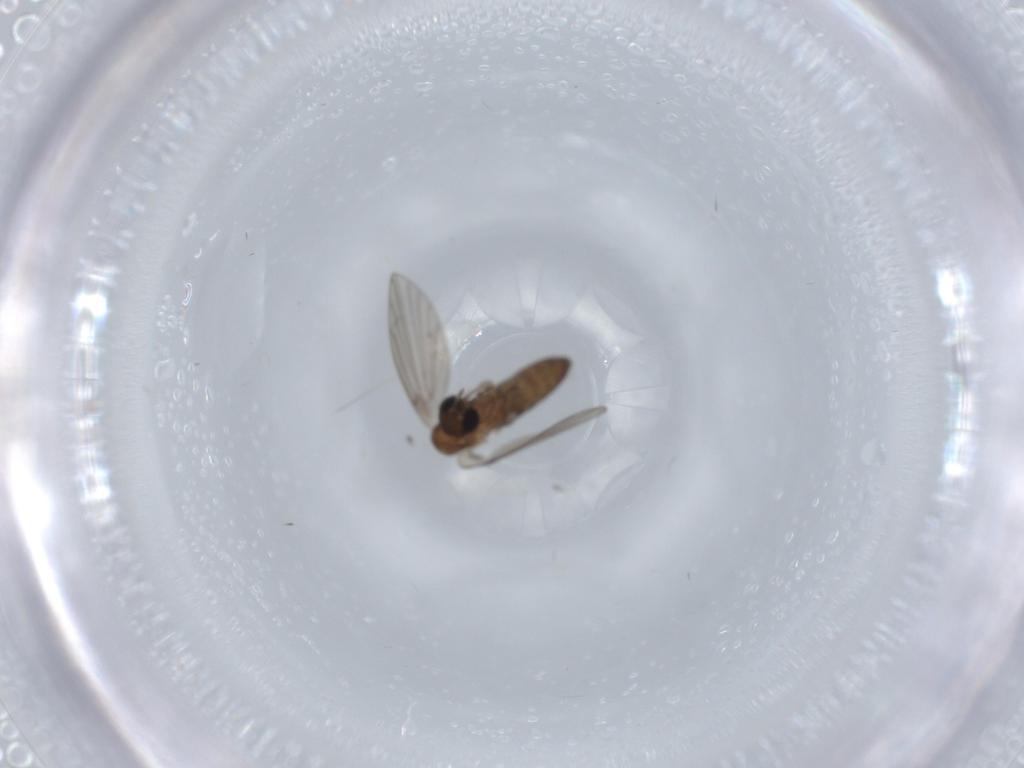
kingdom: Animalia
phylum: Arthropoda
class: Insecta
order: Diptera
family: Psychodidae
